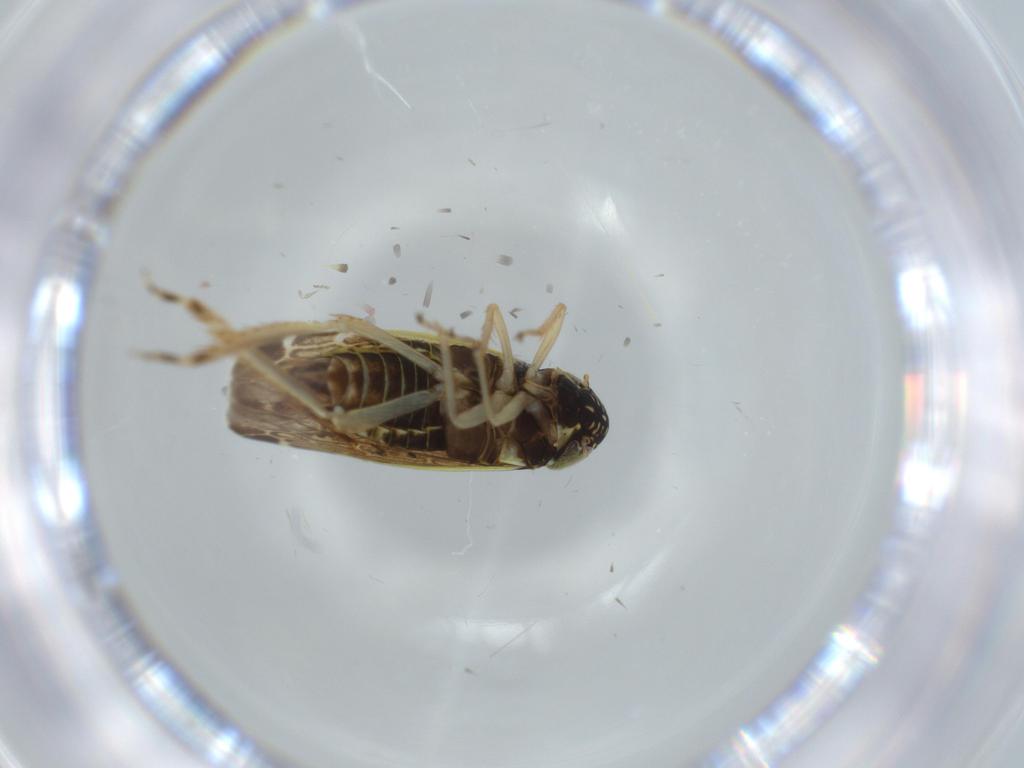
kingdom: Animalia
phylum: Arthropoda
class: Insecta
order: Hemiptera
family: Cicadellidae
